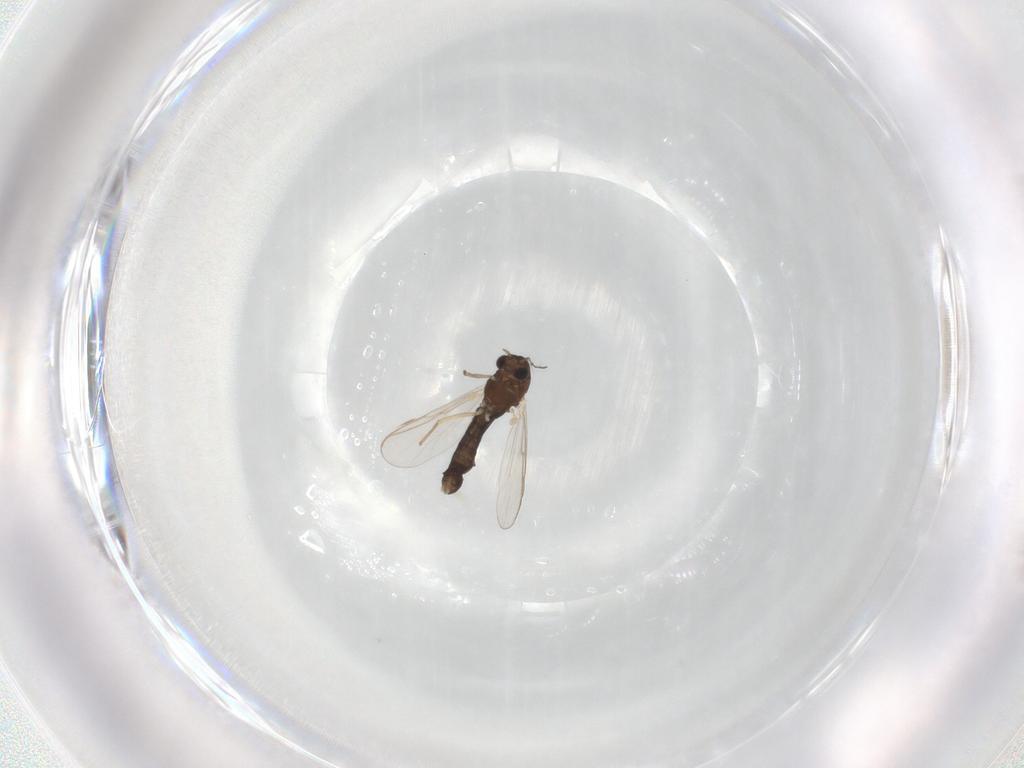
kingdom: Animalia
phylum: Arthropoda
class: Insecta
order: Diptera
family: Chironomidae
